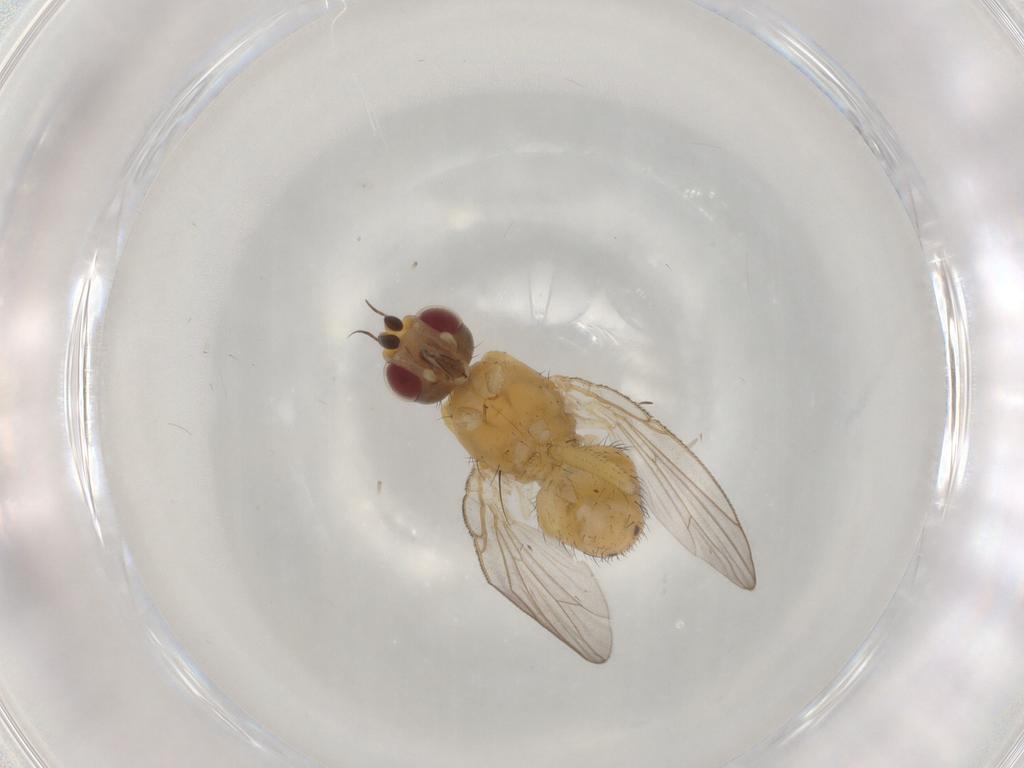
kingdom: Animalia
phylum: Arthropoda
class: Insecta
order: Diptera
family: Muscidae
